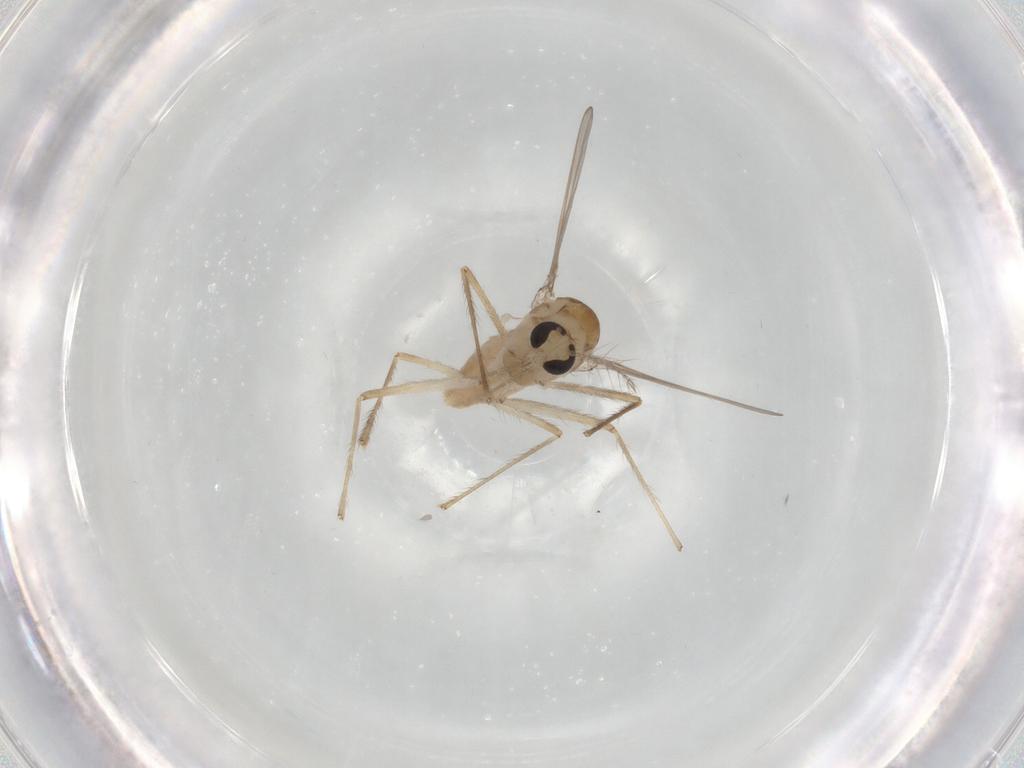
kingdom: Animalia
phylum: Arthropoda
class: Insecta
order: Diptera
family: Chironomidae
